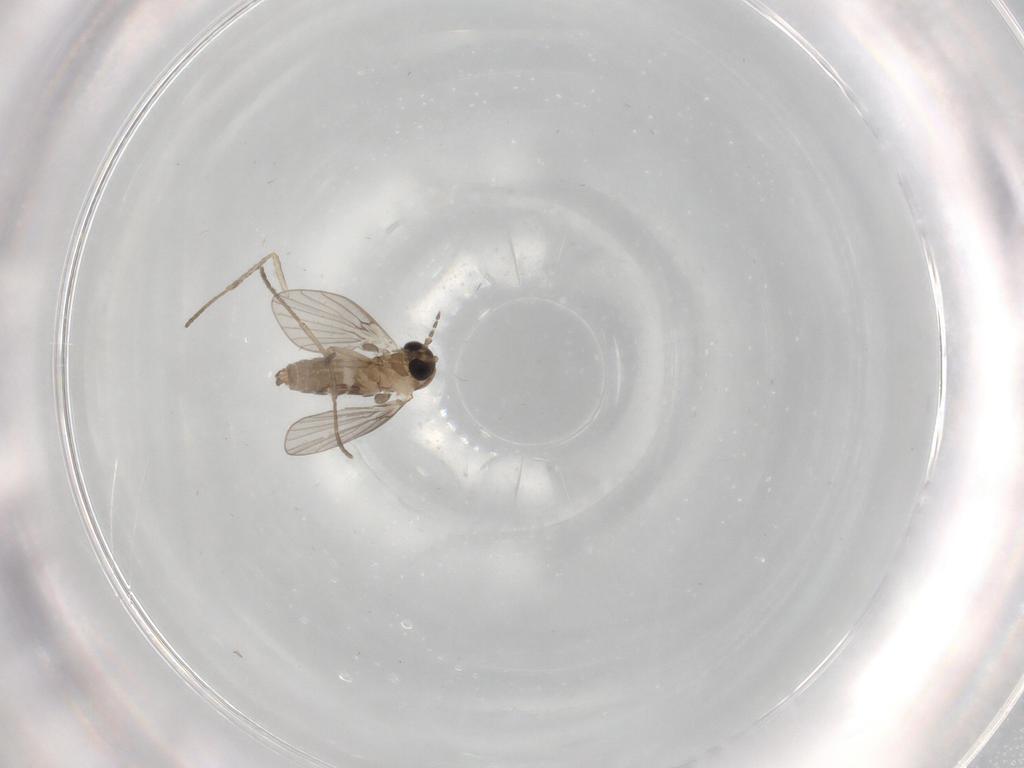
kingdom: Animalia
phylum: Arthropoda
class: Insecta
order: Diptera
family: Psychodidae
